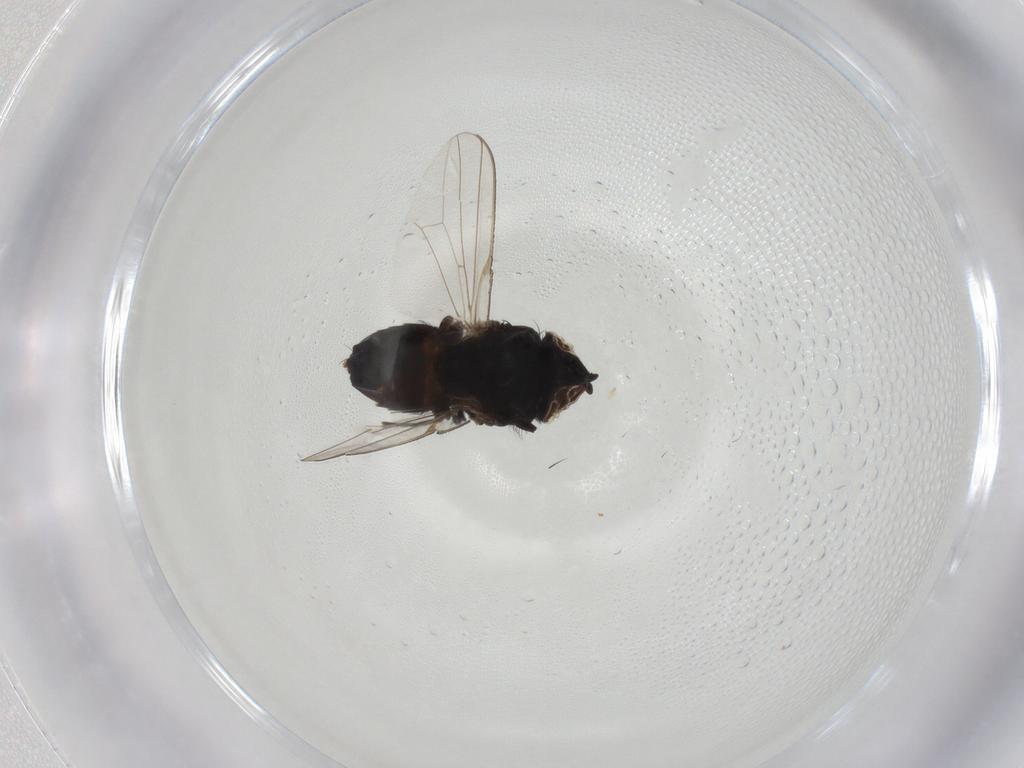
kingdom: Animalia
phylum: Arthropoda
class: Insecta
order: Diptera
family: Muscidae
